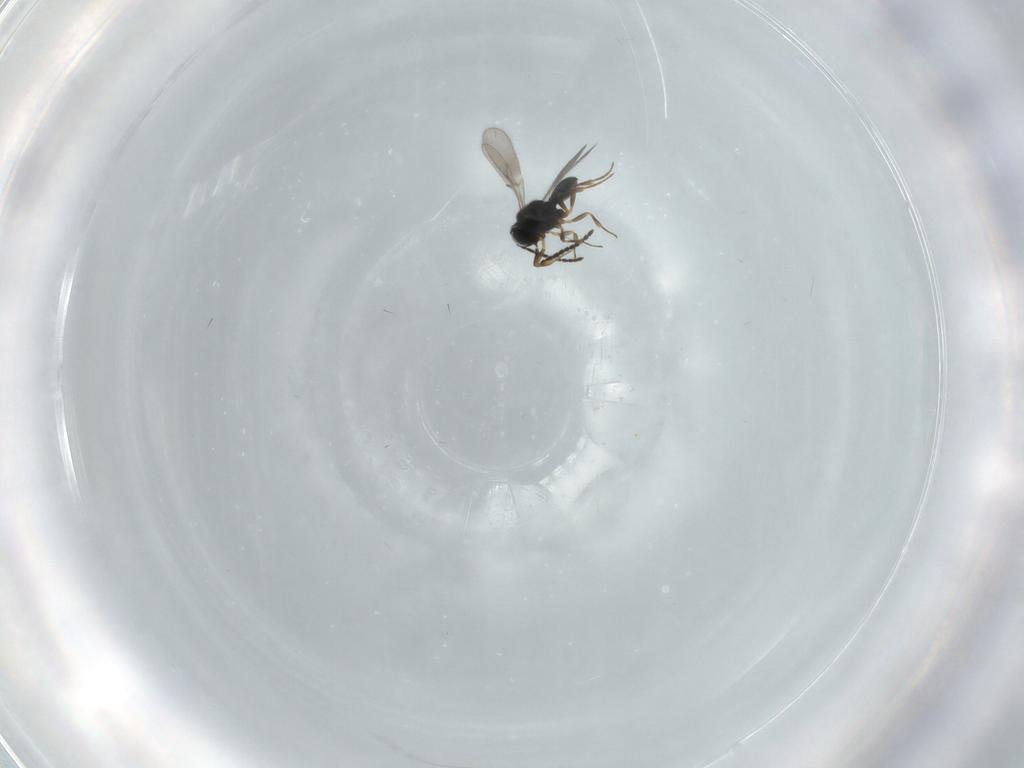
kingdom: Animalia
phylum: Arthropoda
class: Insecta
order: Hymenoptera
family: Scelionidae
